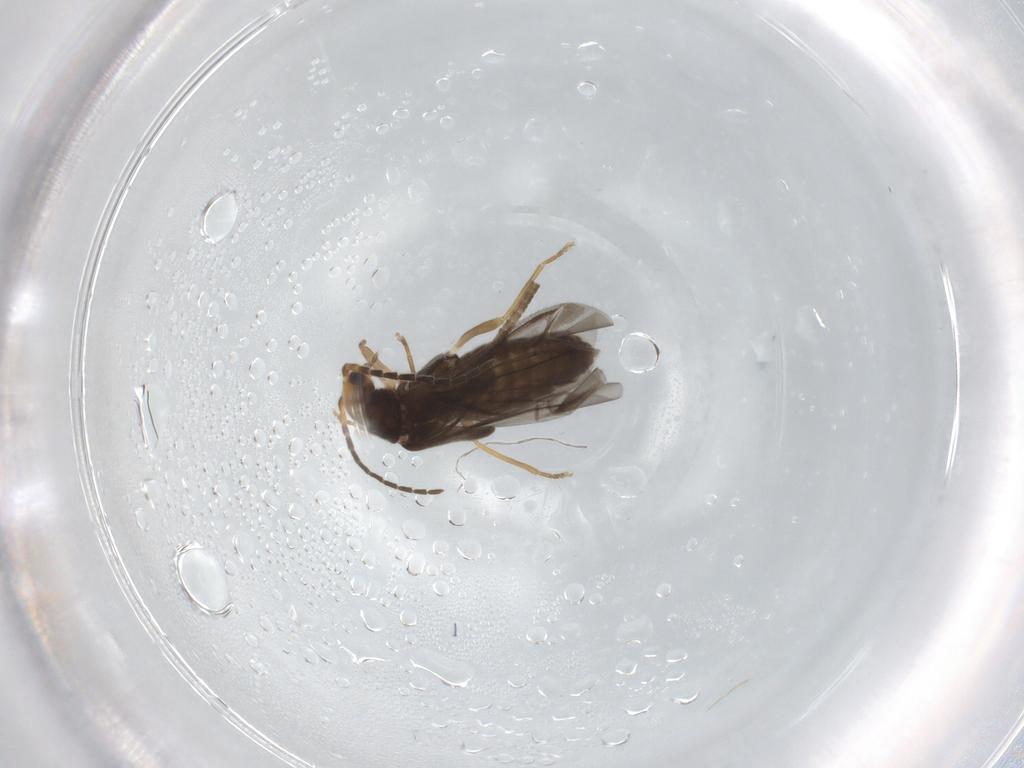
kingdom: Animalia
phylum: Arthropoda
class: Insecta
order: Coleoptera
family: Cantharidae
